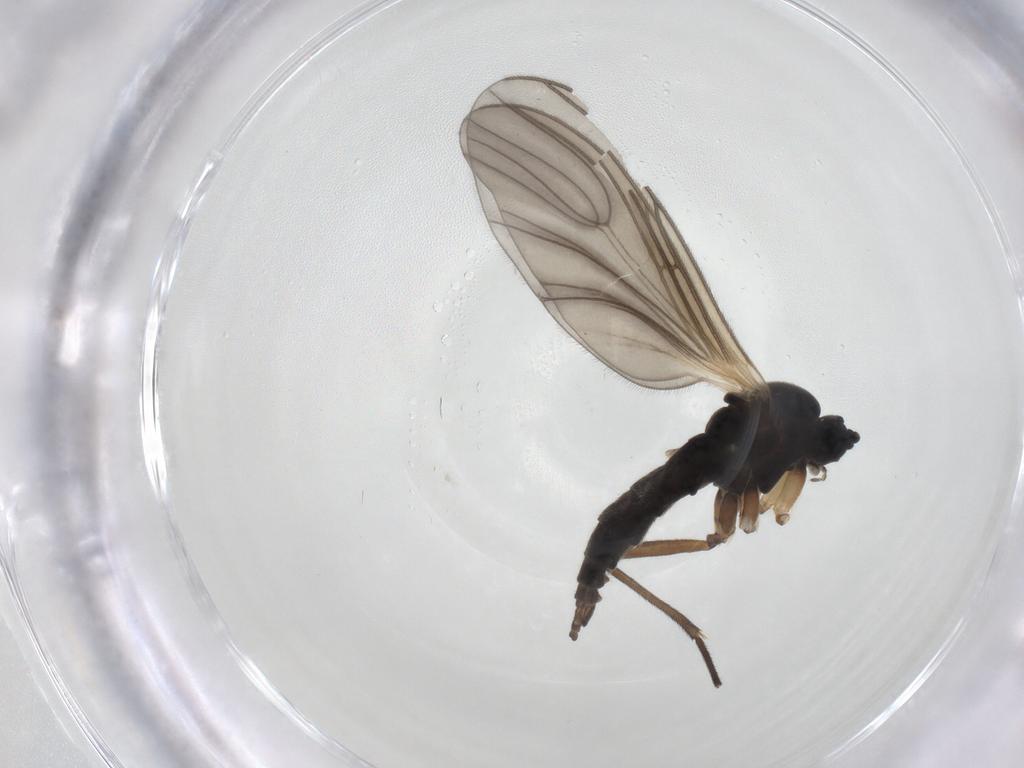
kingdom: Animalia
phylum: Arthropoda
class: Insecta
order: Diptera
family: Sciaridae
